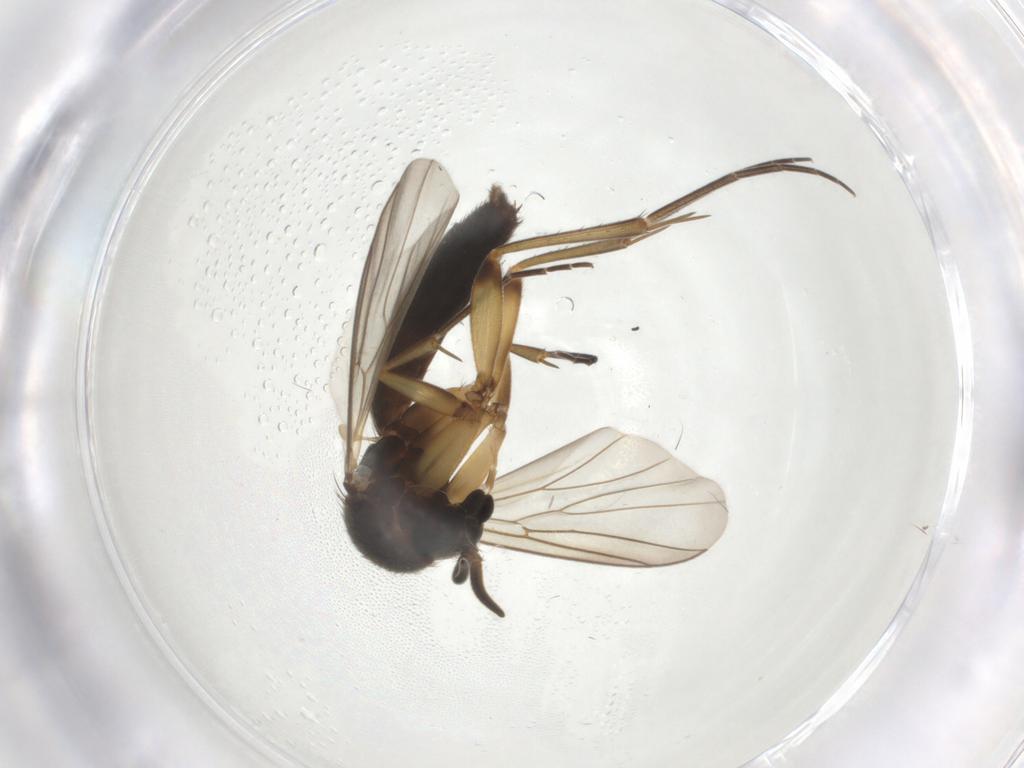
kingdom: Animalia
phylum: Arthropoda
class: Insecta
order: Diptera
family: Mycetophilidae
